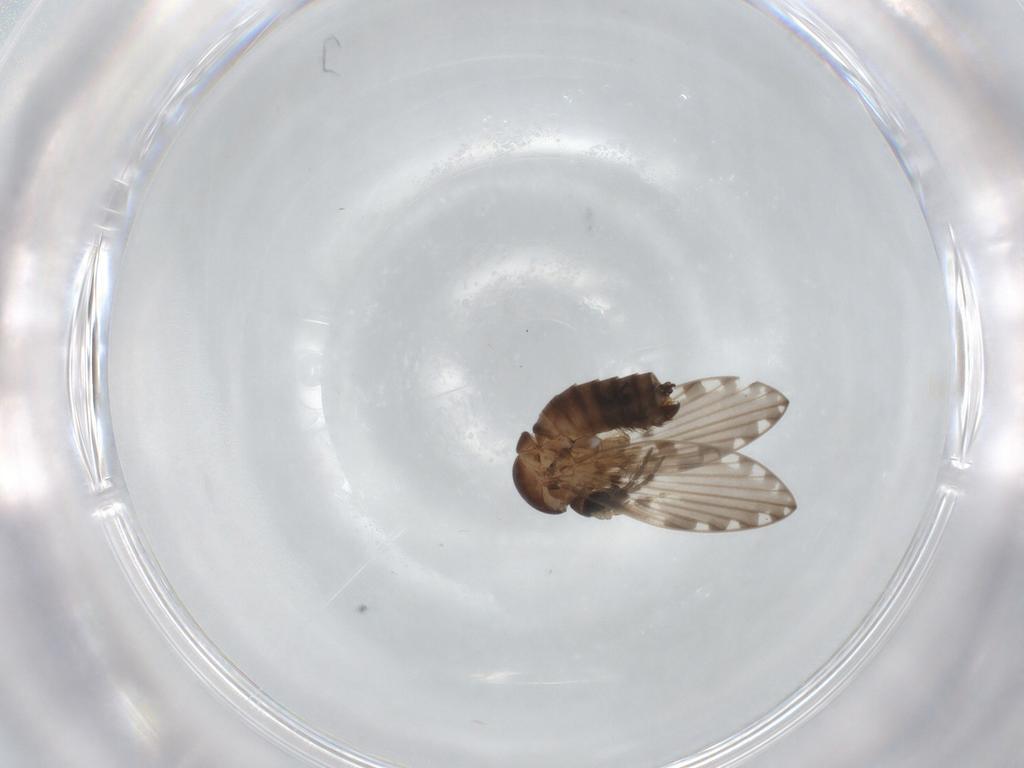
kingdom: Animalia
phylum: Arthropoda
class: Insecta
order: Diptera
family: Psychodidae
